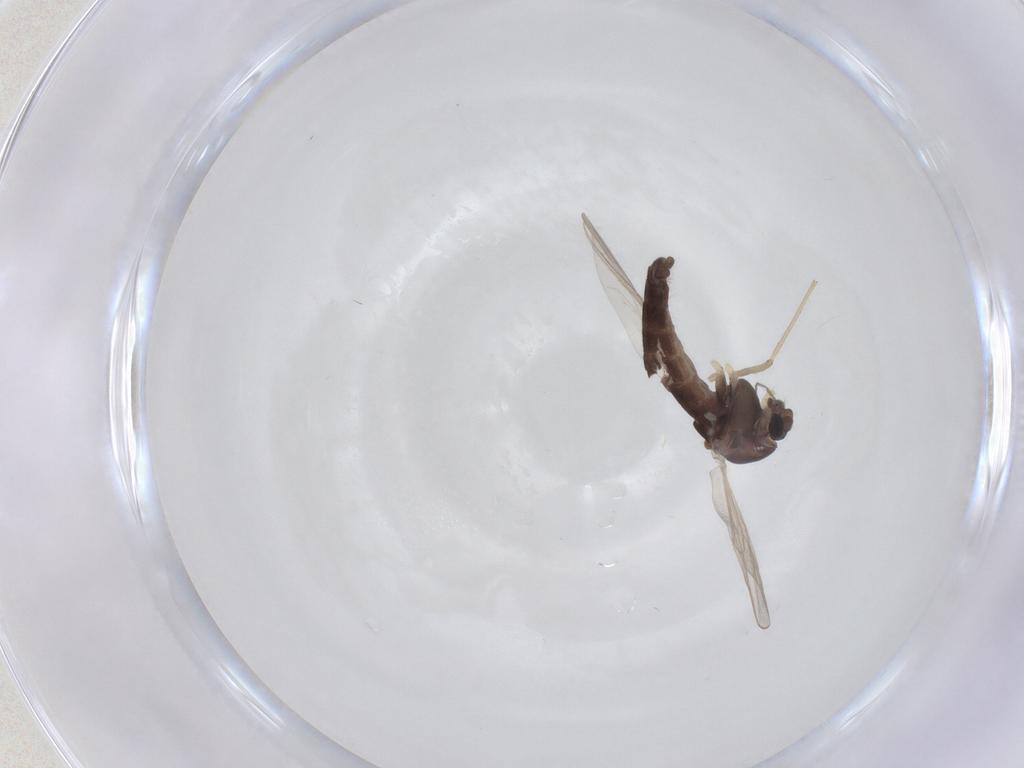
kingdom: Animalia
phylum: Arthropoda
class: Insecta
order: Diptera
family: Chironomidae
